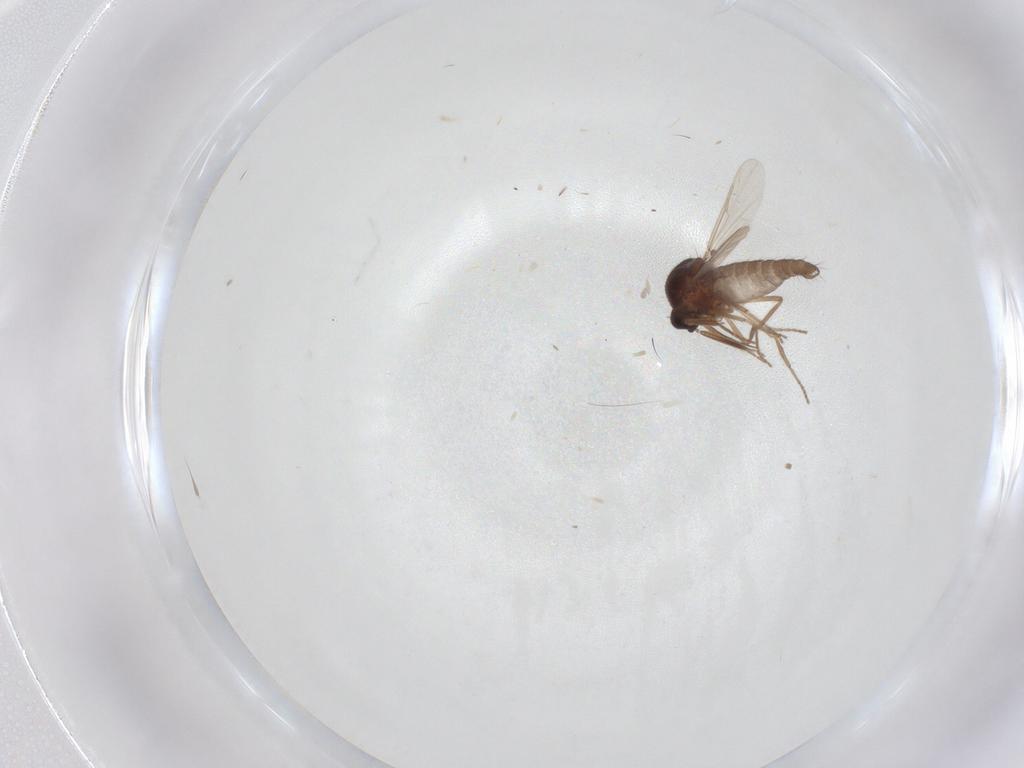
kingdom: Animalia
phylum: Arthropoda
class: Insecta
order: Diptera
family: Ceratopogonidae
